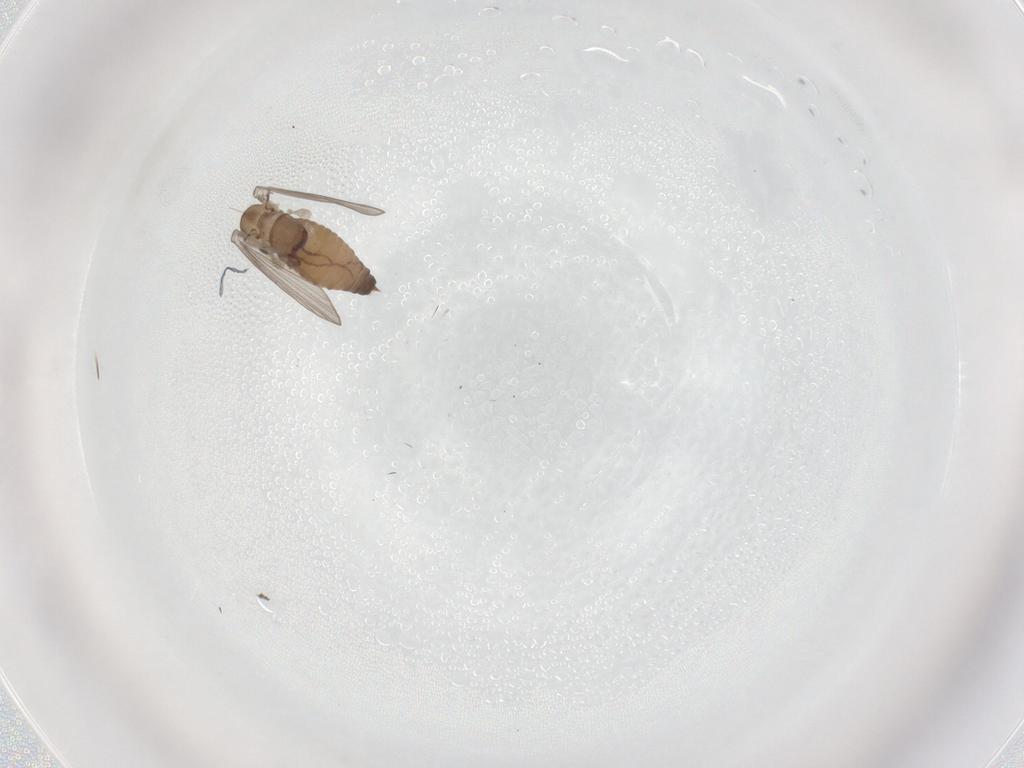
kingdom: Animalia
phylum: Arthropoda
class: Insecta
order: Diptera
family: Psychodidae
